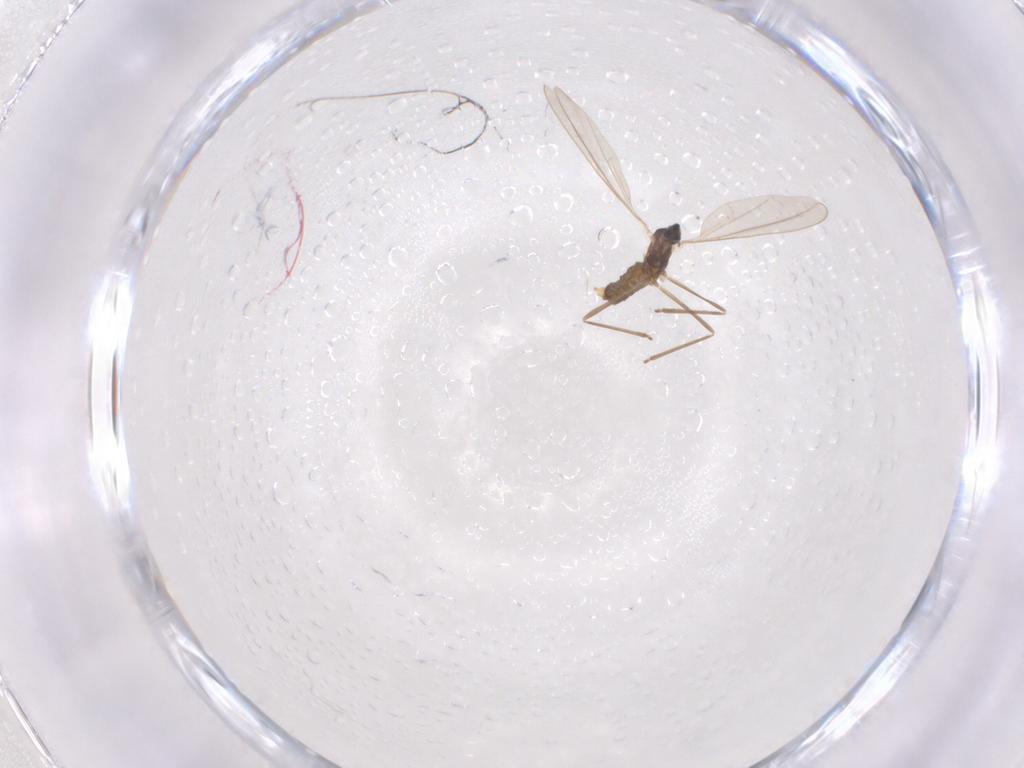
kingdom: Animalia
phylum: Arthropoda
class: Insecta
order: Diptera
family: Cecidomyiidae
